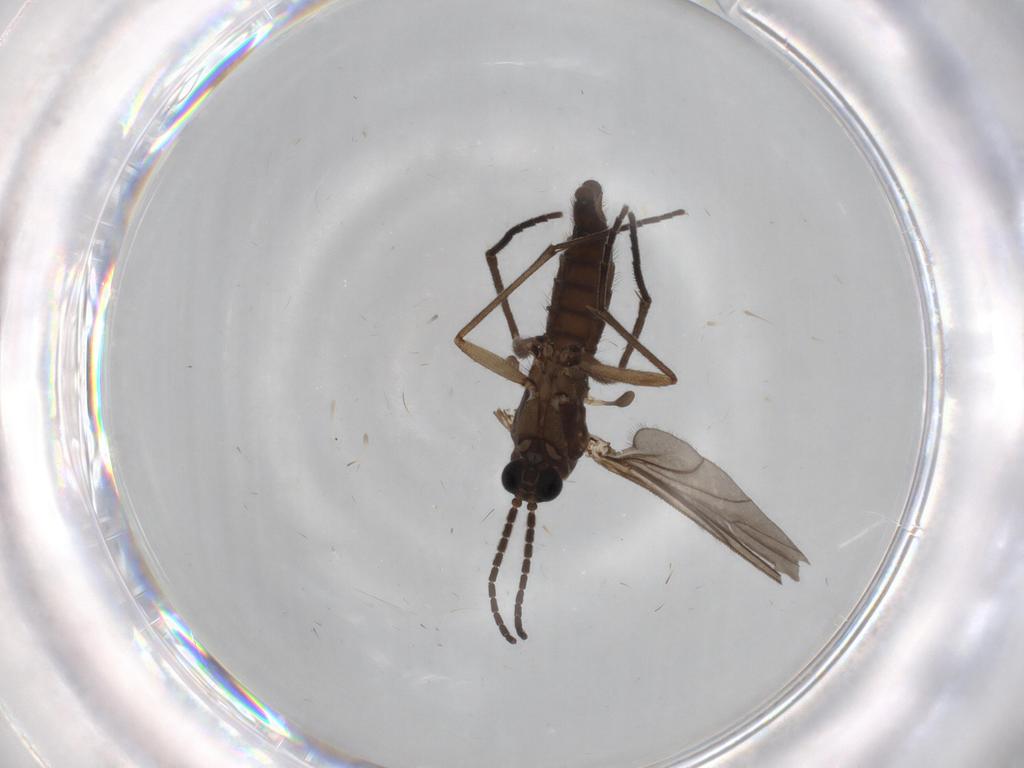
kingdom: Animalia
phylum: Arthropoda
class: Insecta
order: Diptera
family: Sciaridae
